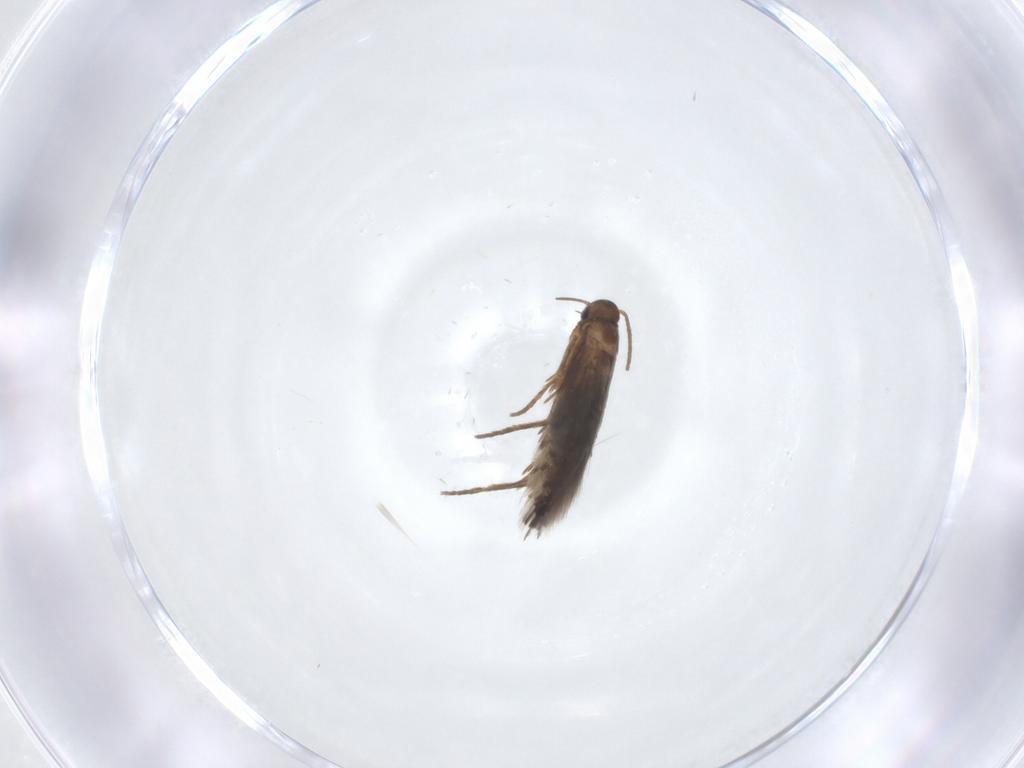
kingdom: Animalia
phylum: Arthropoda
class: Insecta
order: Lepidoptera
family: Heliozelidae
